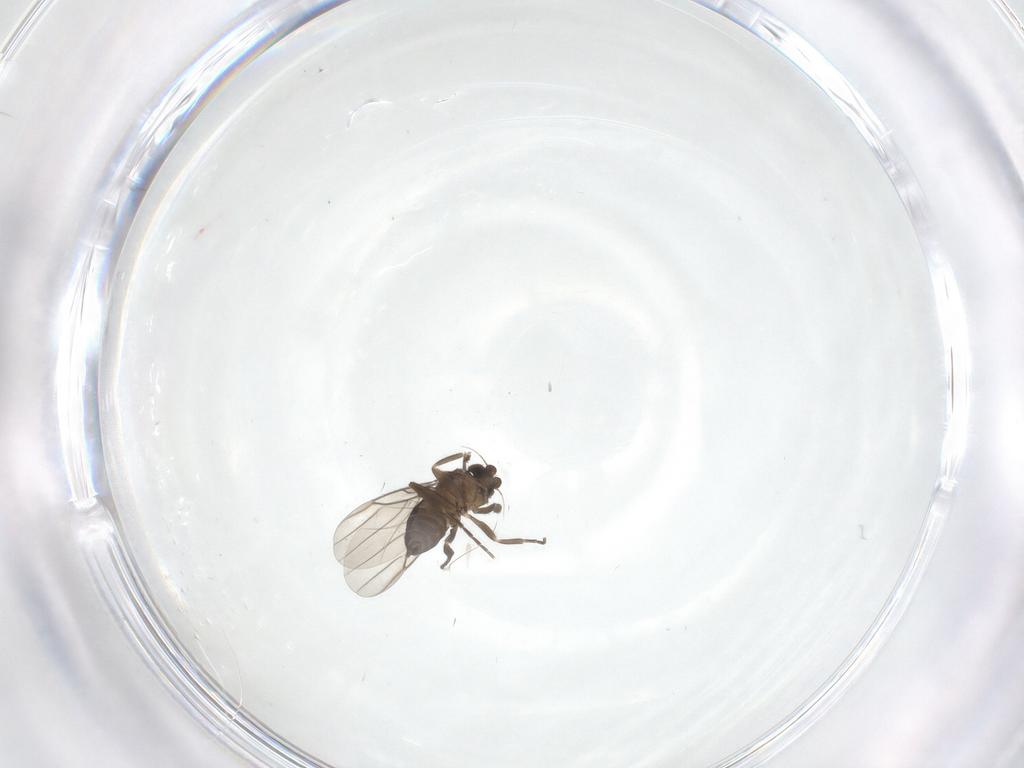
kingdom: Animalia
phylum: Arthropoda
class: Insecta
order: Diptera
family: Phoridae
